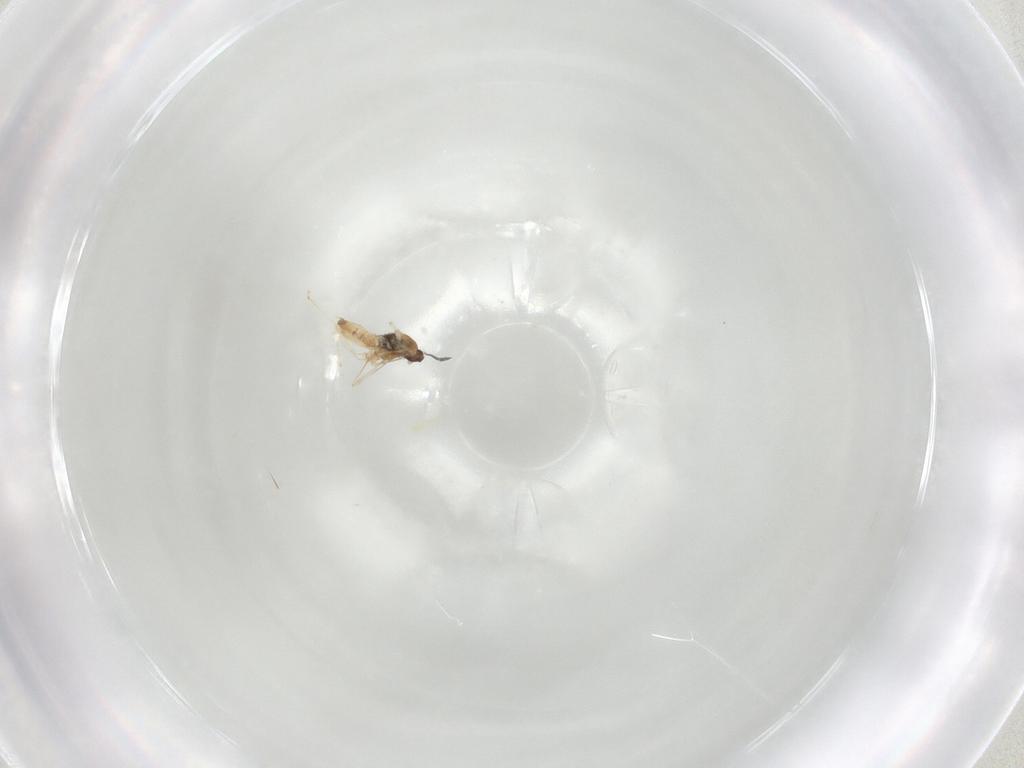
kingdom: Animalia
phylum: Arthropoda
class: Insecta
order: Diptera
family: Cecidomyiidae
